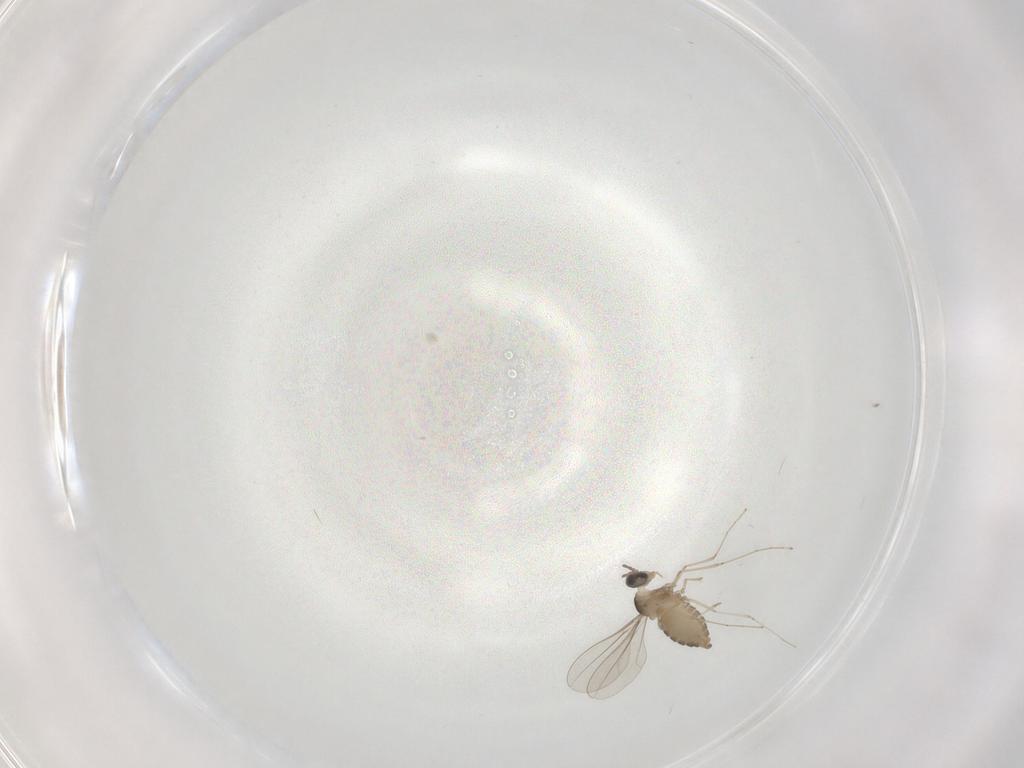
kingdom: Animalia
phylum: Arthropoda
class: Insecta
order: Diptera
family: Cecidomyiidae
